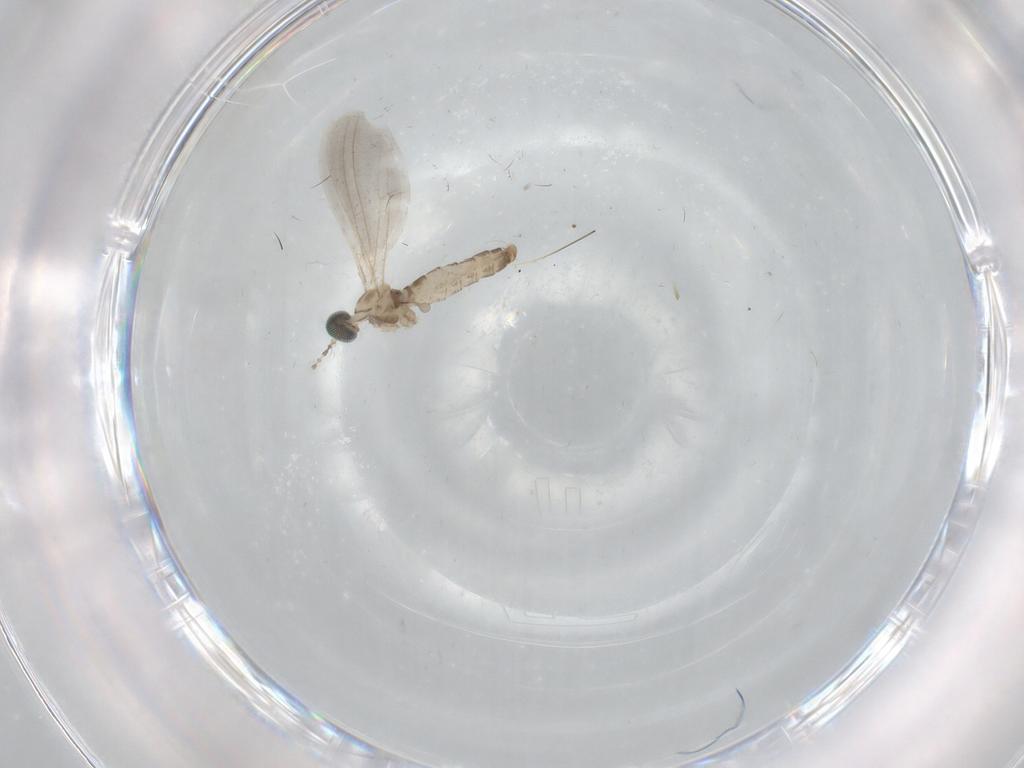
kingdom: Animalia
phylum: Arthropoda
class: Insecta
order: Diptera
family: Cecidomyiidae
